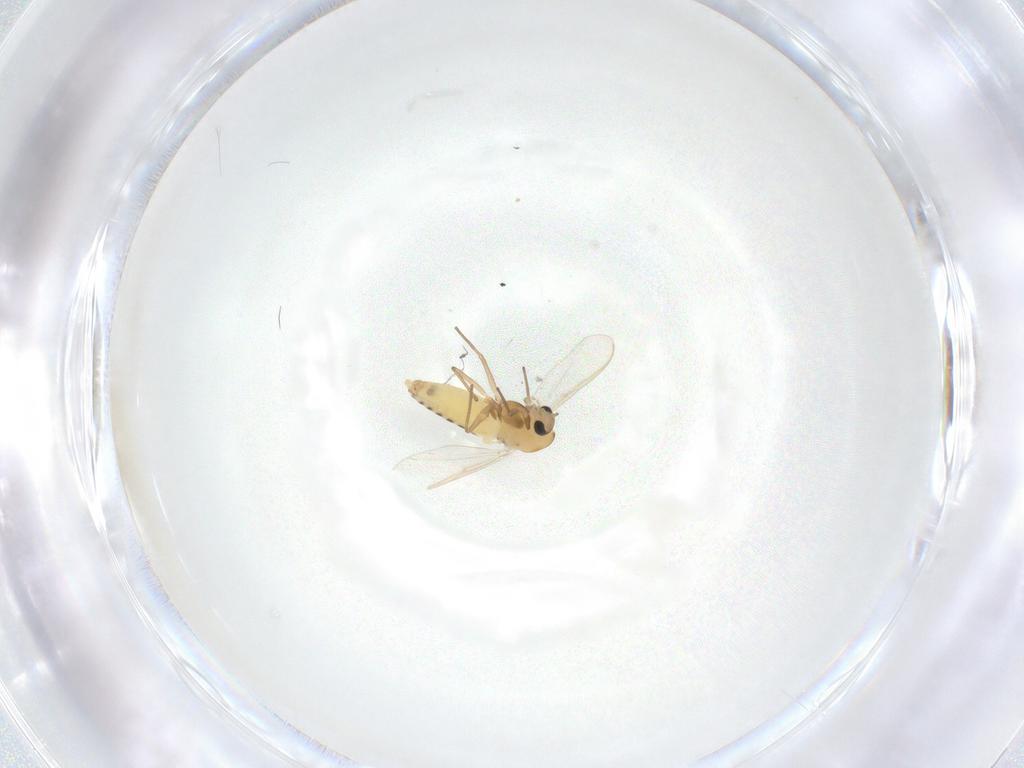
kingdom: Animalia
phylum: Arthropoda
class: Insecta
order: Diptera
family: Chironomidae
